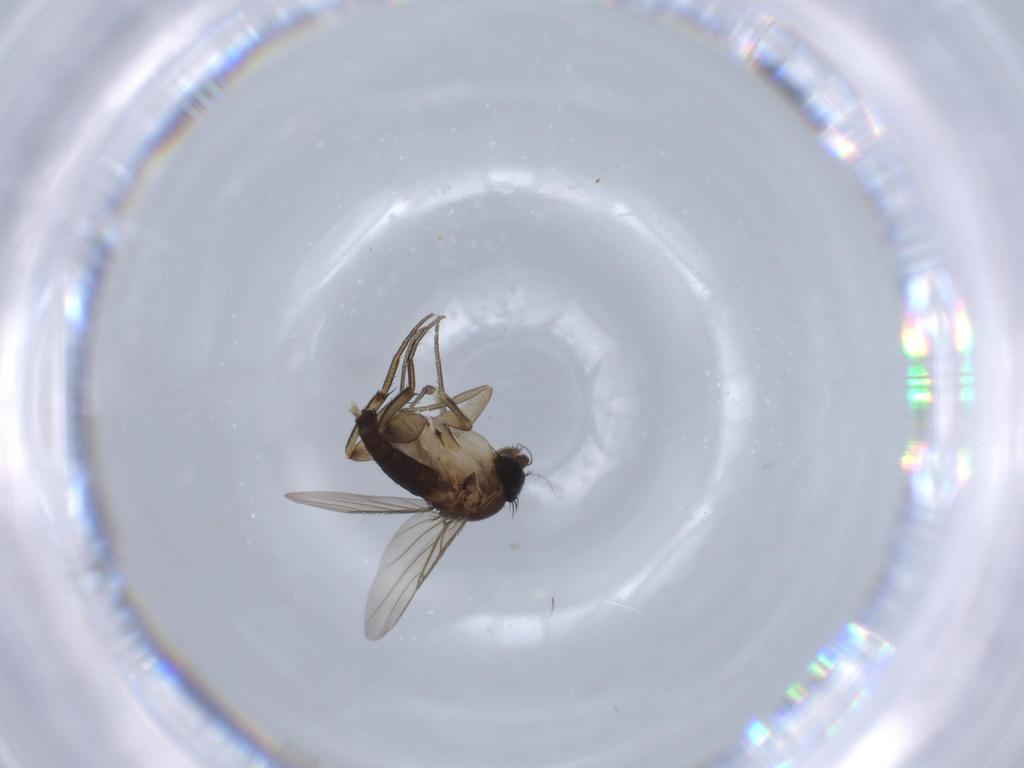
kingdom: Animalia
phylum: Arthropoda
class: Insecta
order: Diptera
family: Phoridae
